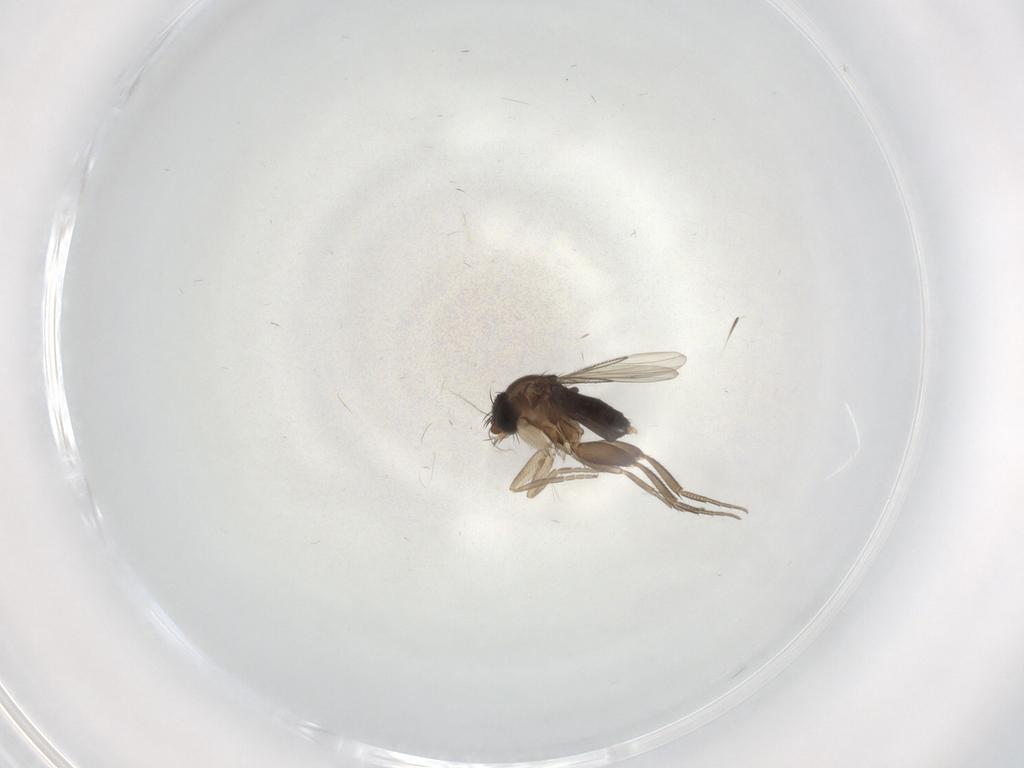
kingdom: Animalia
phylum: Arthropoda
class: Insecta
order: Diptera
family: Phoridae
